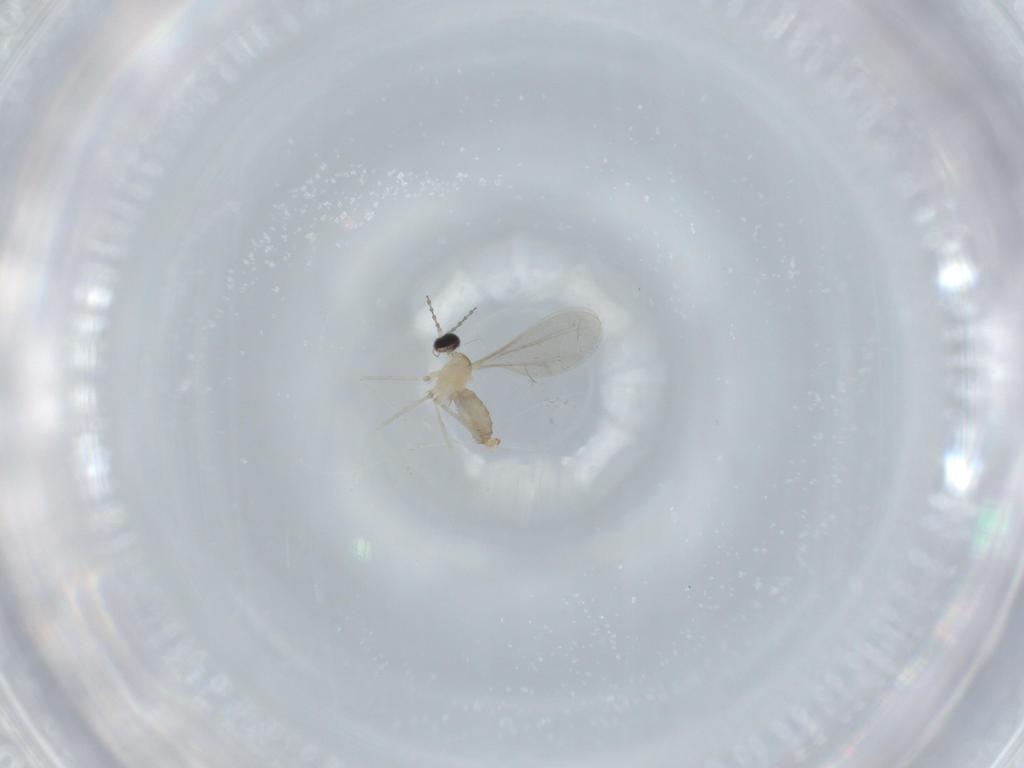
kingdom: Animalia
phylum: Arthropoda
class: Insecta
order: Diptera
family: Cecidomyiidae
